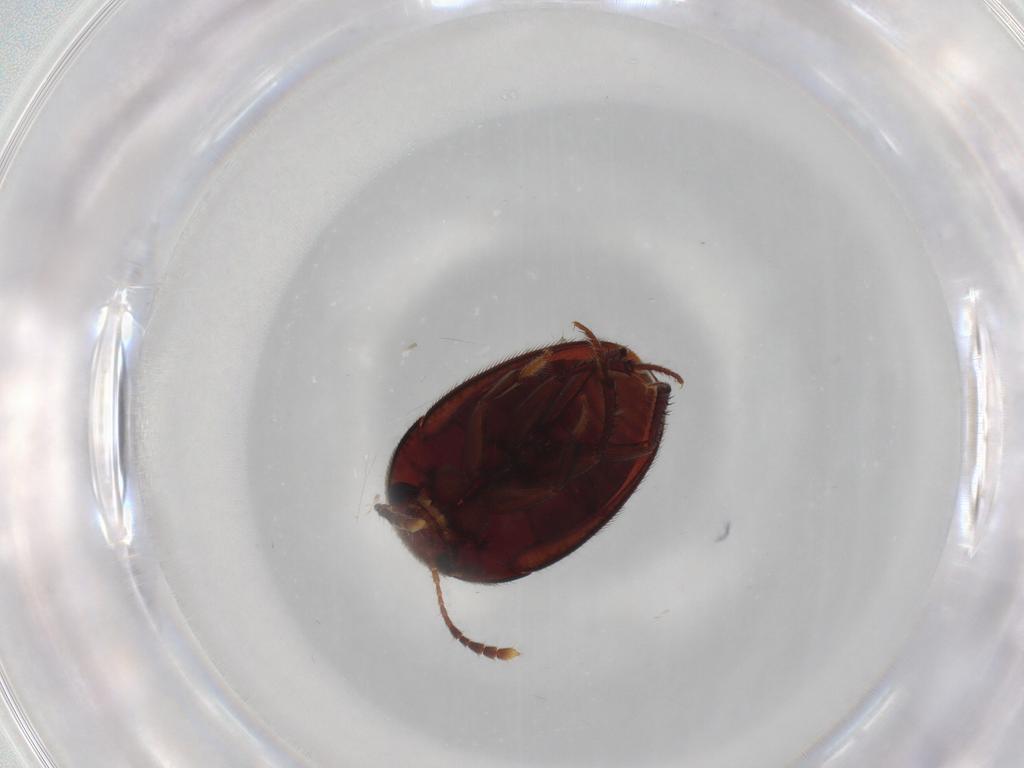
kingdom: Animalia
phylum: Arthropoda
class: Insecta
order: Coleoptera
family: Leiodidae
